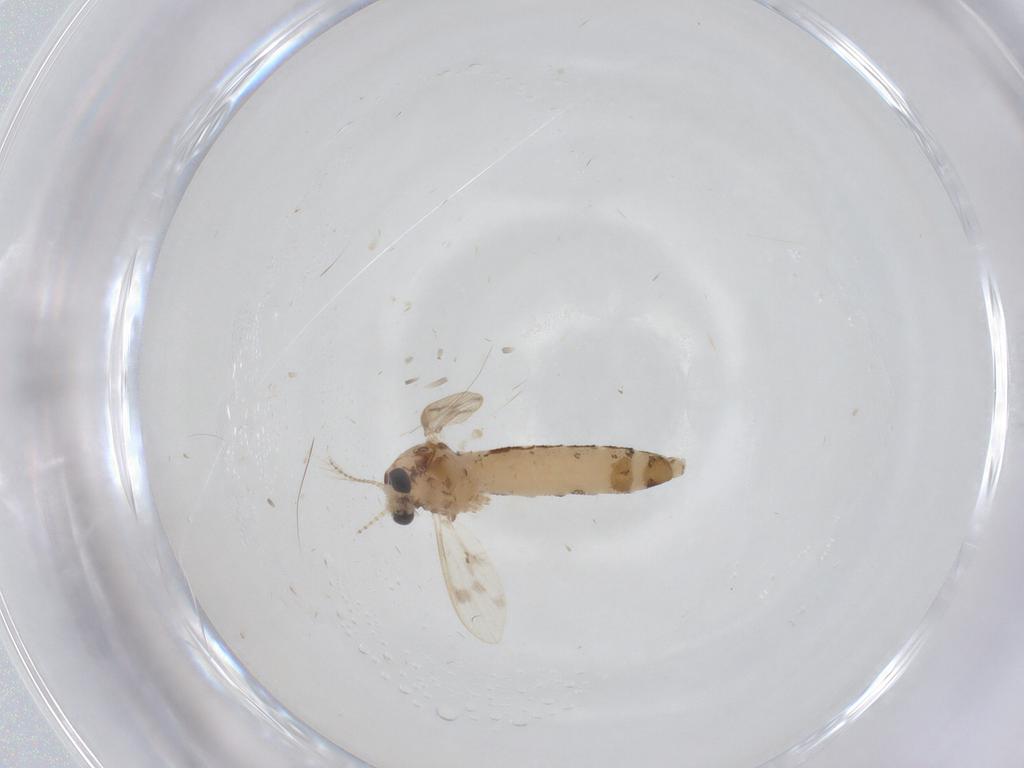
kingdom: Animalia
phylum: Arthropoda
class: Insecta
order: Diptera
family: Corethrellidae
